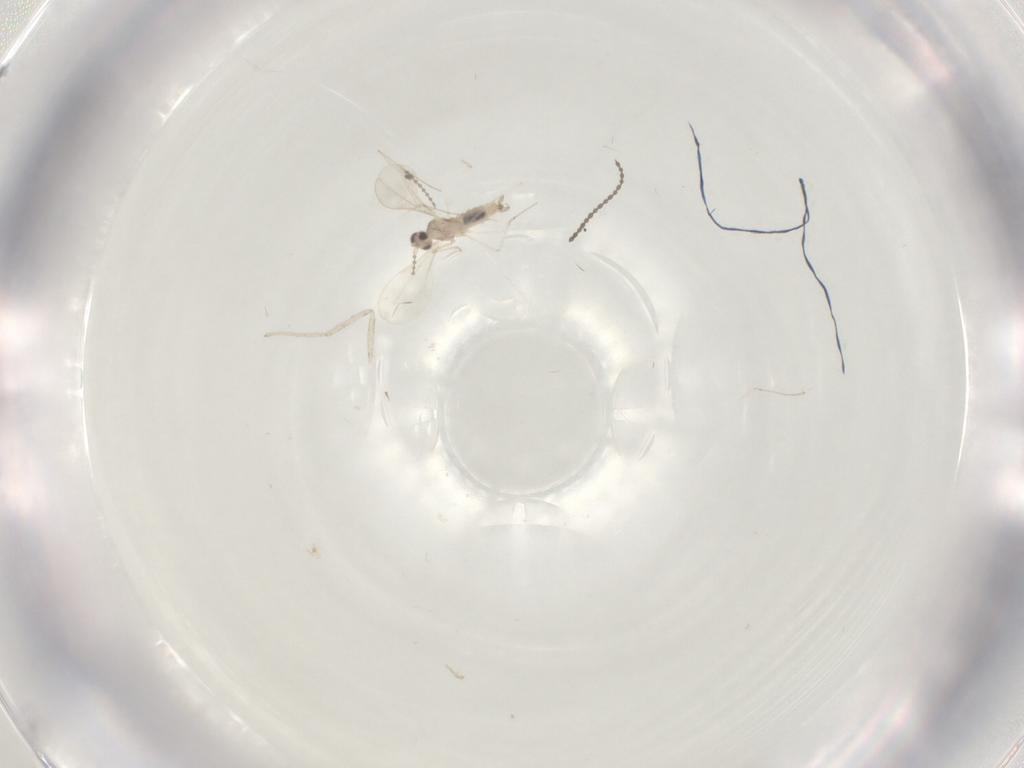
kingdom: Animalia
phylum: Arthropoda
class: Insecta
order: Diptera
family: Cecidomyiidae
